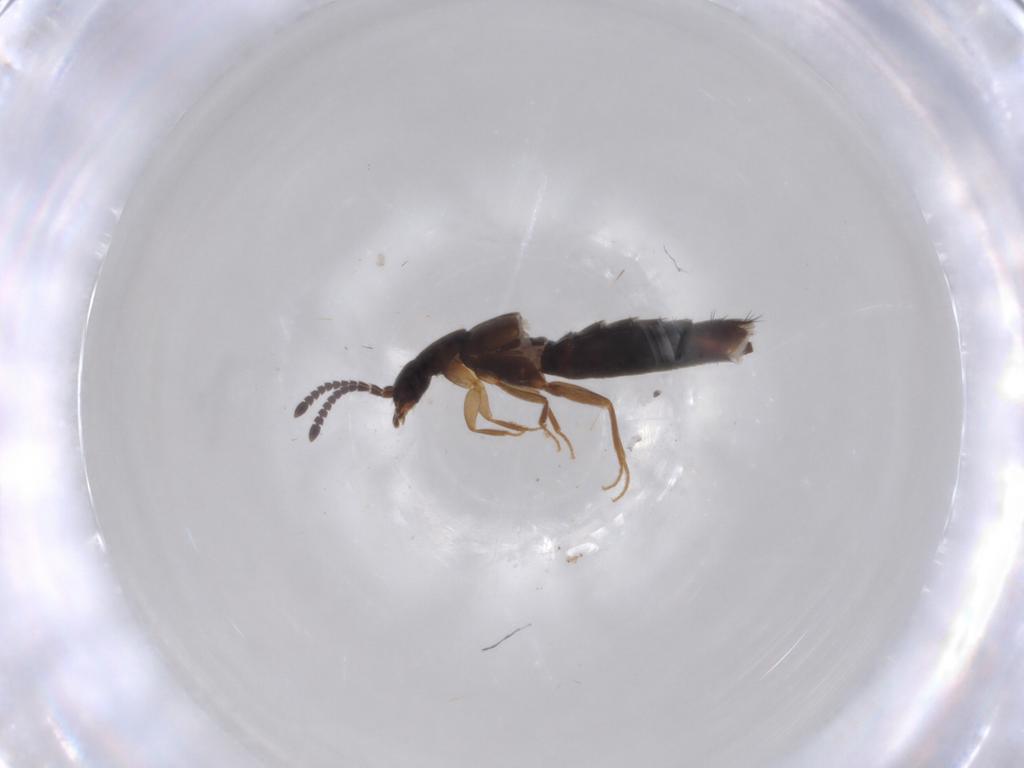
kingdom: Animalia
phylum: Arthropoda
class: Insecta
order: Coleoptera
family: Staphylinidae
